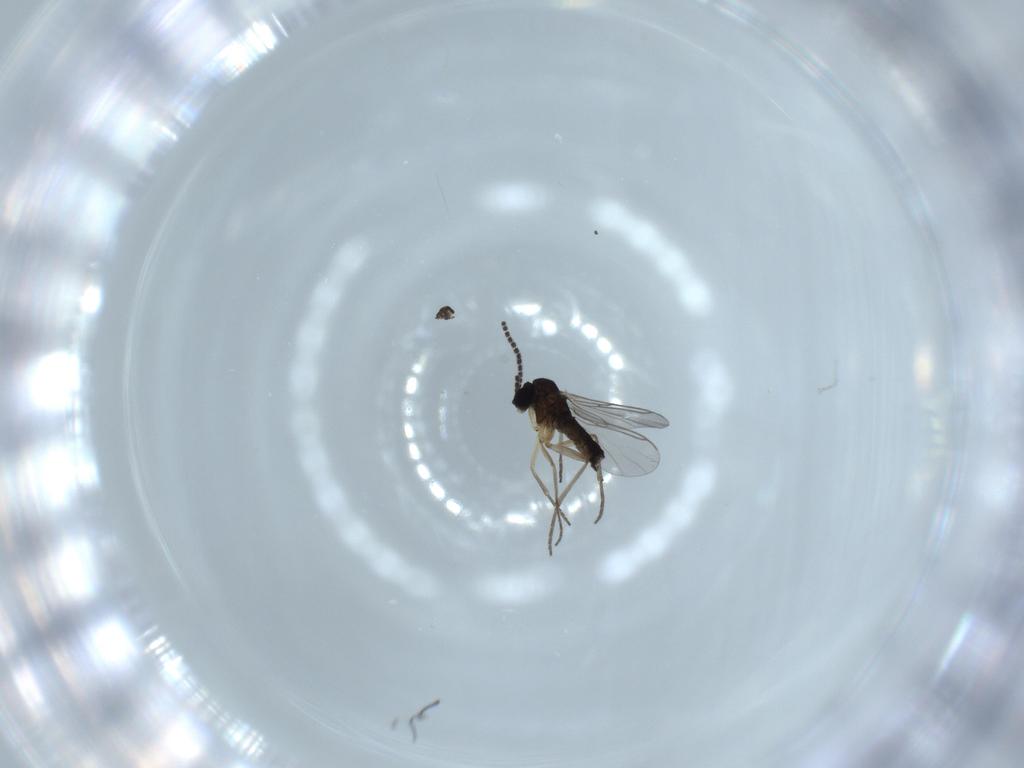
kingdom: Animalia
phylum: Arthropoda
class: Insecta
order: Diptera
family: Sciaridae
